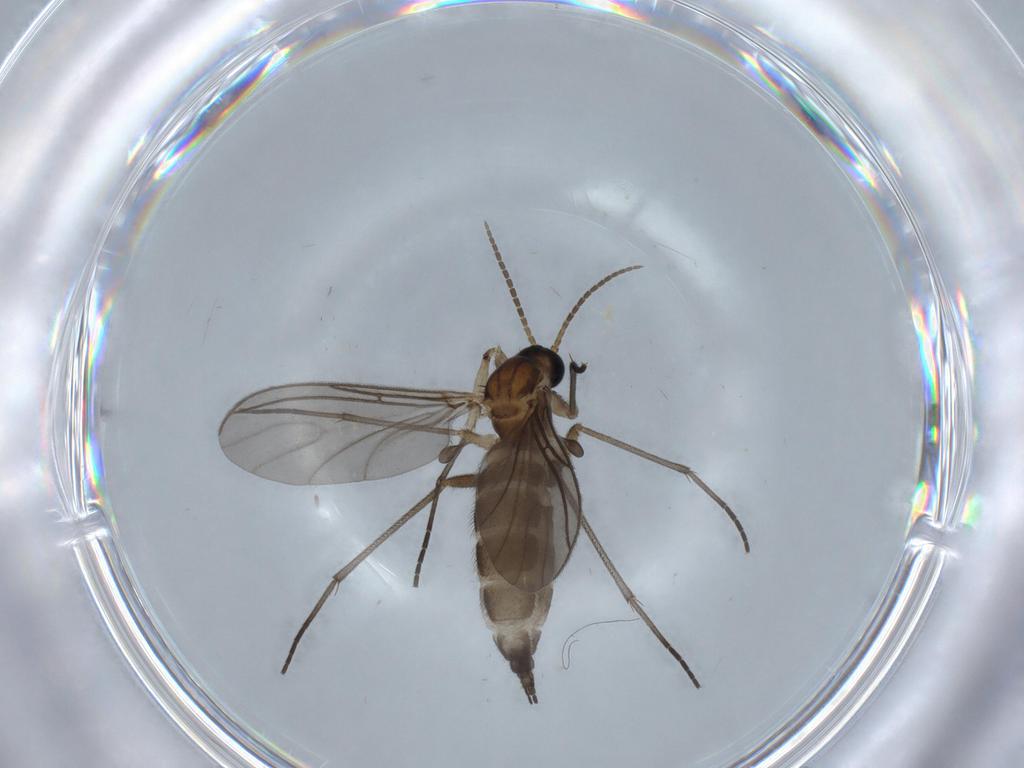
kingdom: Animalia
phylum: Arthropoda
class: Insecta
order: Diptera
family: Sciaridae
